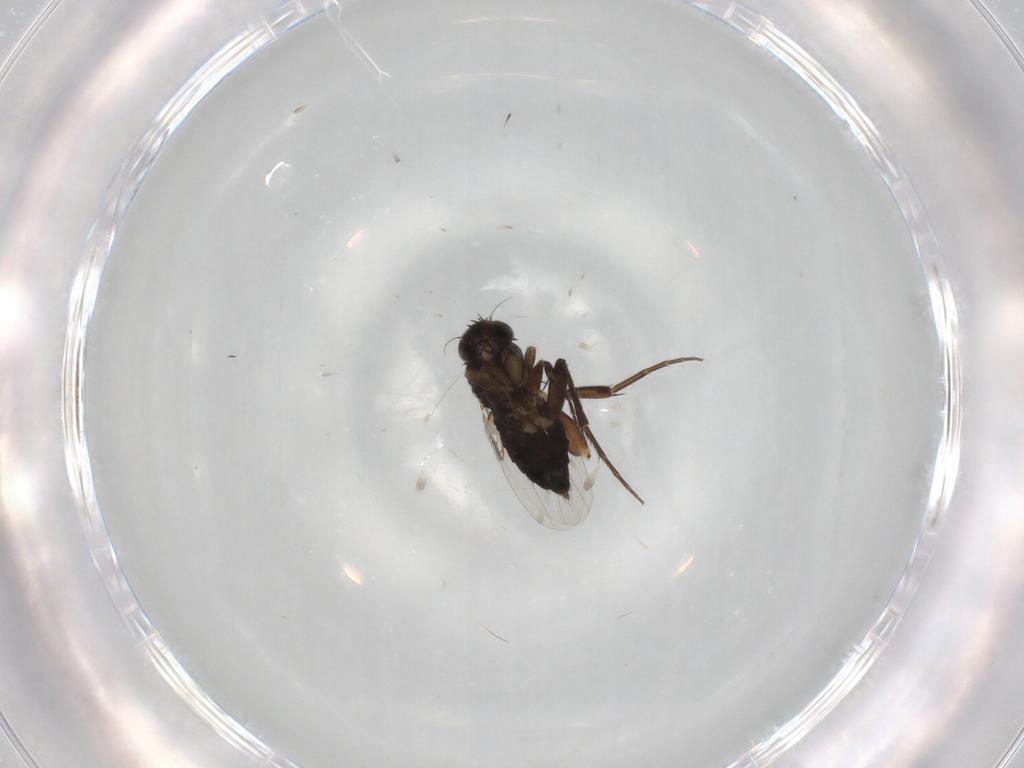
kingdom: Animalia
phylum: Arthropoda
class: Insecta
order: Diptera
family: Phoridae
